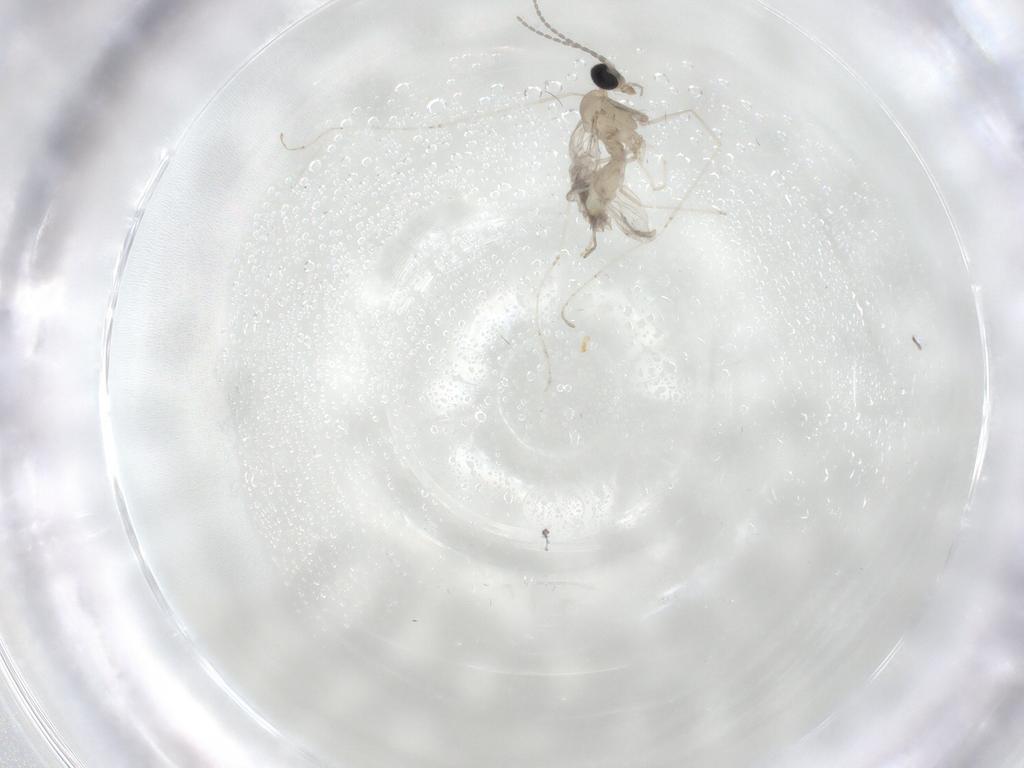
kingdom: Animalia
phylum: Arthropoda
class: Insecta
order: Diptera
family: Cecidomyiidae
